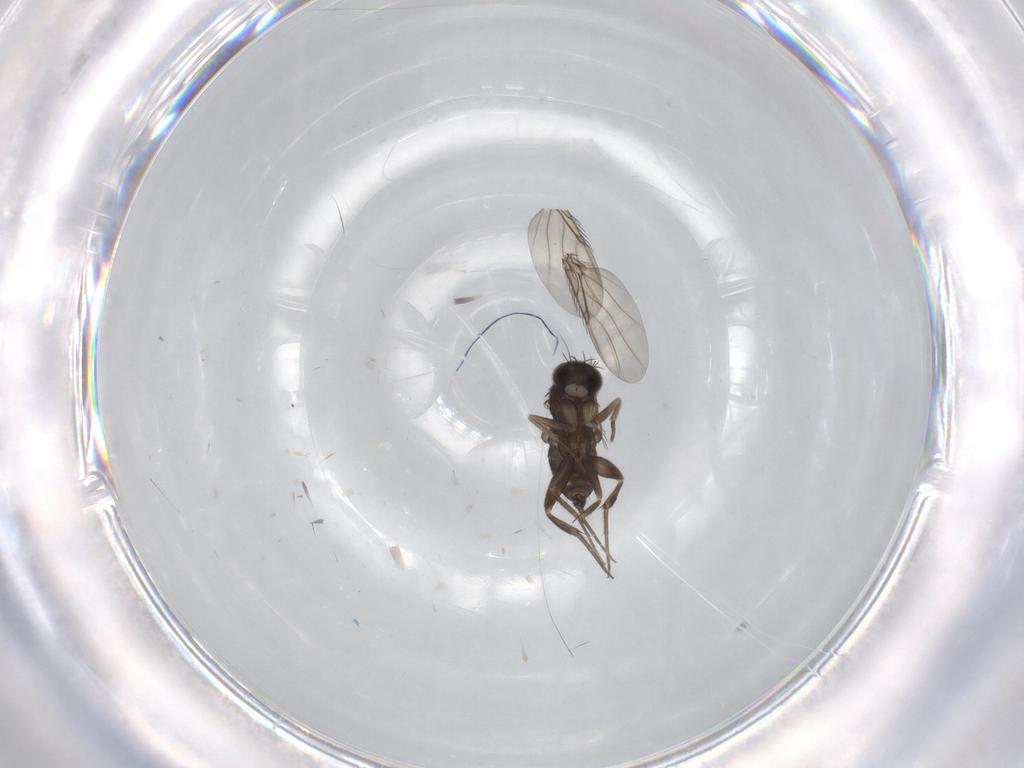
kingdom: Animalia
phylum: Arthropoda
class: Insecta
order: Diptera
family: Phoridae
